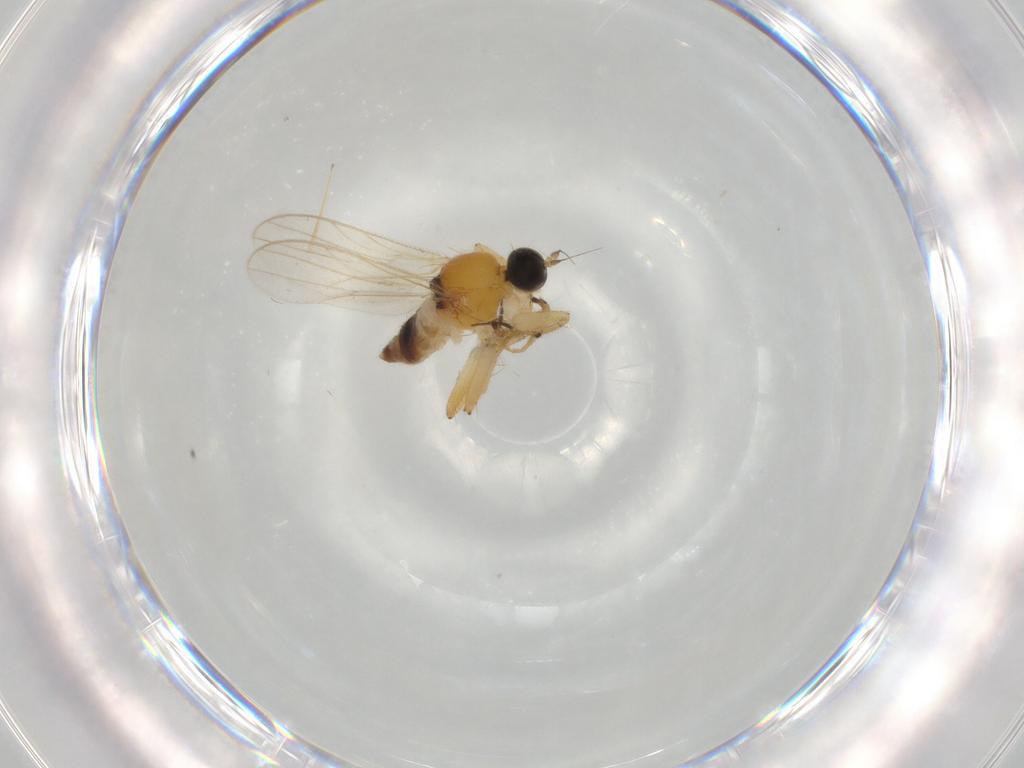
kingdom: Animalia
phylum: Arthropoda
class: Insecta
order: Diptera
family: Hybotidae
